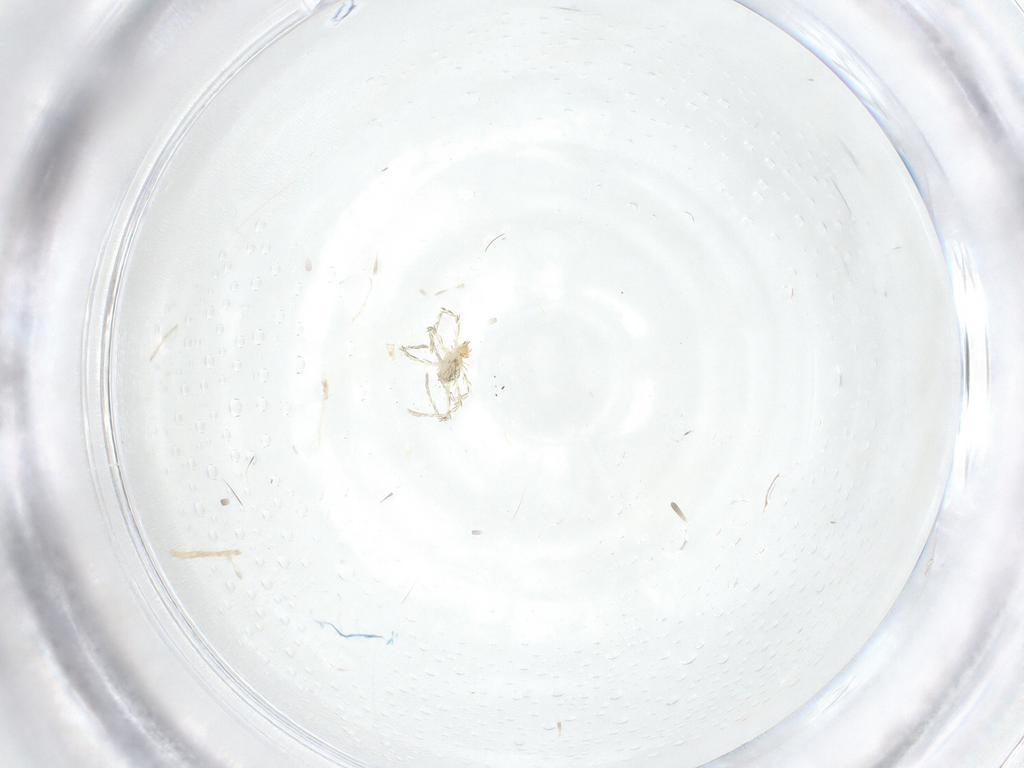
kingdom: Animalia
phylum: Arthropoda
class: Arachnida
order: Trombidiformes
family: Erythraeidae
